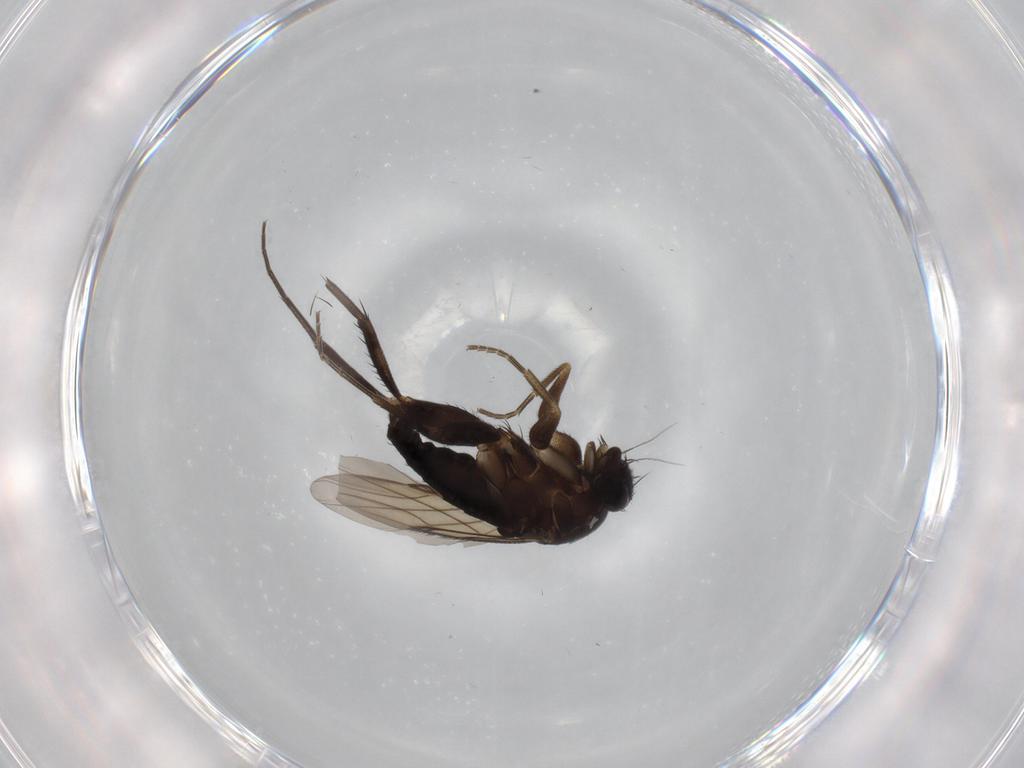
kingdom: Animalia
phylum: Arthropoda
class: Insecta
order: Diptera
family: Phoridae
